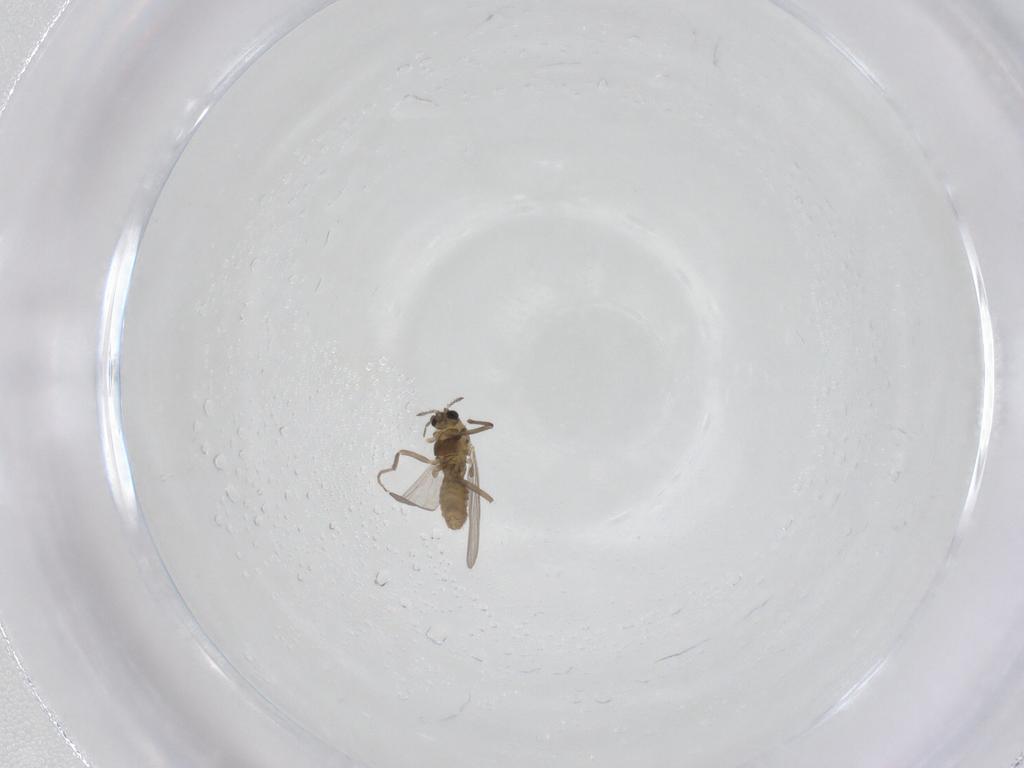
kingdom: Animalia
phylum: Arthropoda
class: Insecta
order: Diptera
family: Chironomidae
